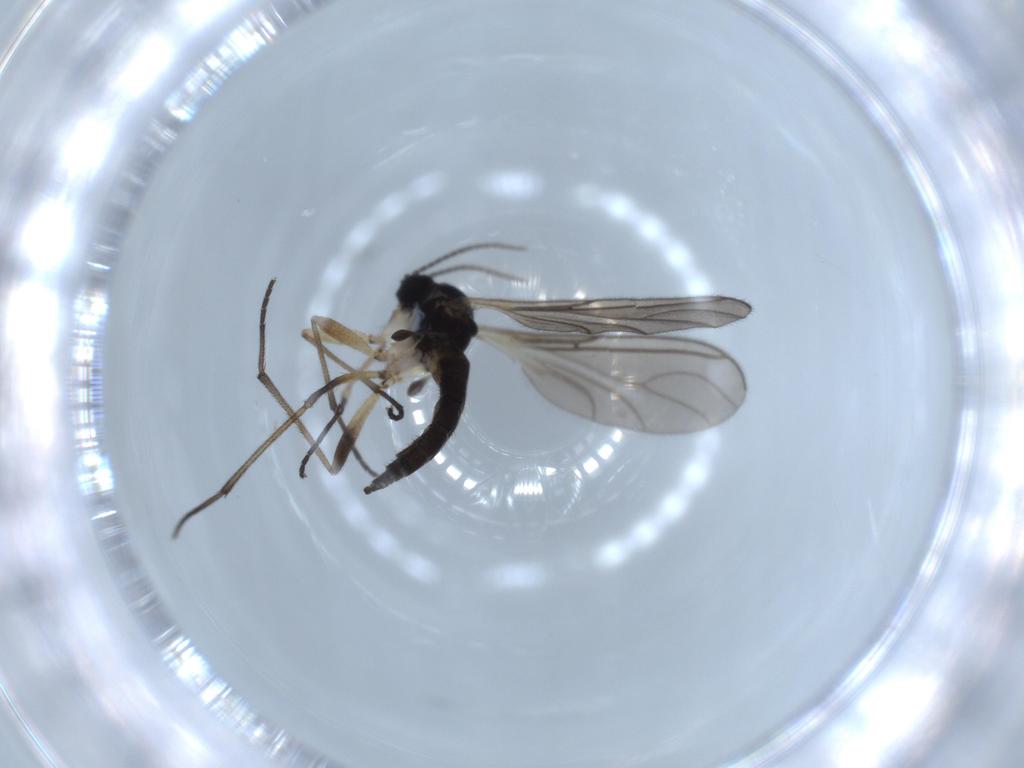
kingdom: Animalia
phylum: Arthropoda
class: Insecta
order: Diptera
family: Sciaridae
